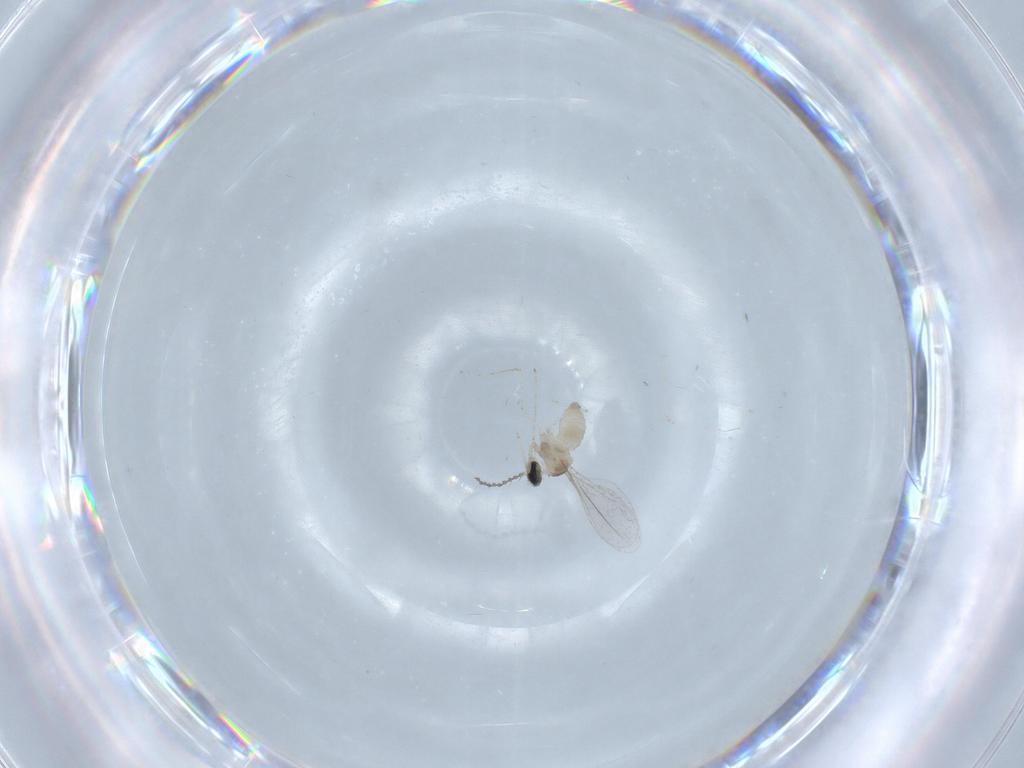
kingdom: Animalia
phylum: Arthropoda
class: Insecta
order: Diptera
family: Cecidomyiidae
